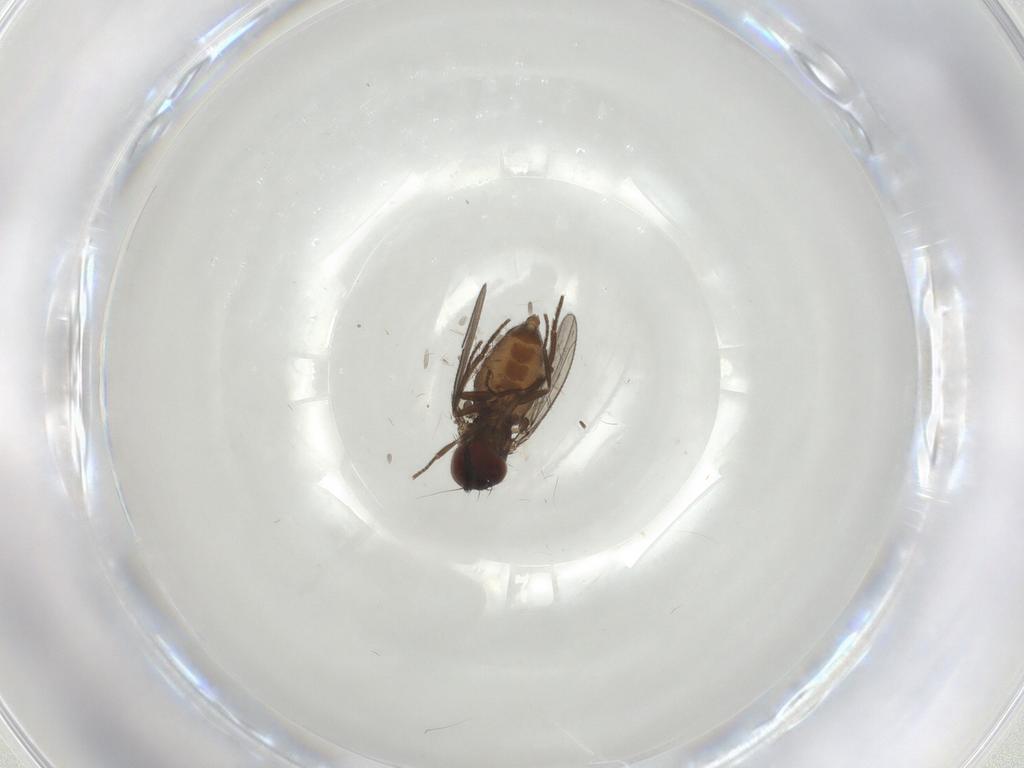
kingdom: Animalia
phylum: Arthropoda
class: Insecta
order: Diptera
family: Dolichopodidae
